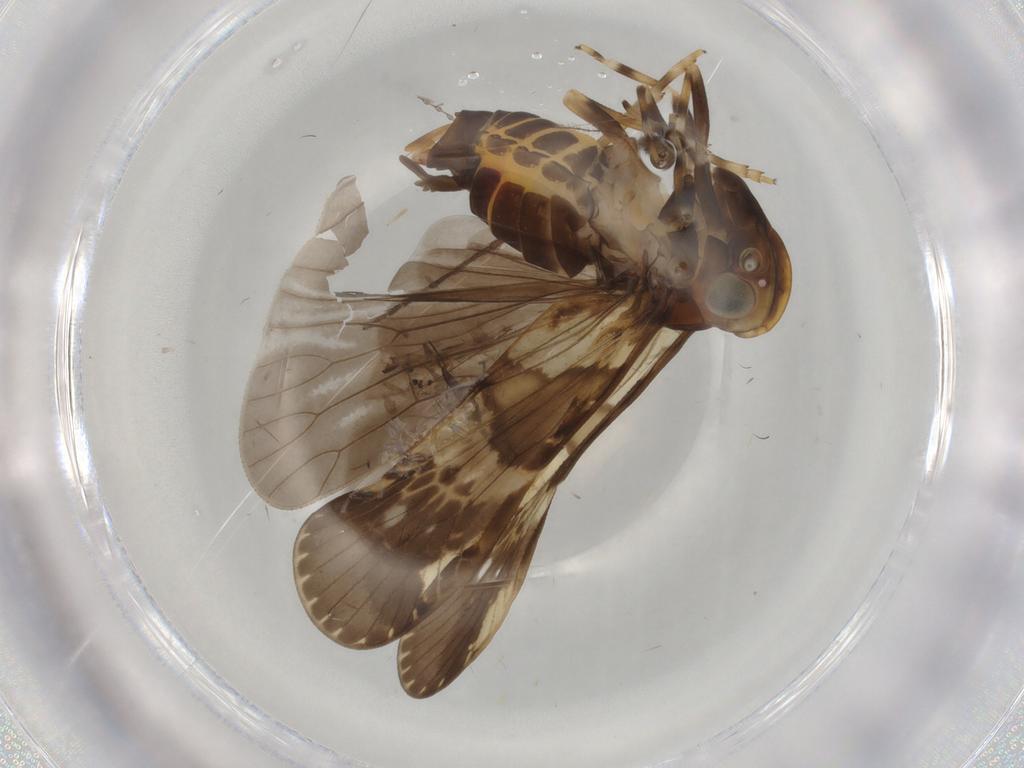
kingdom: Animalia
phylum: Arthropoda
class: Insecta
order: Hemiptera
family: Cixiidae
